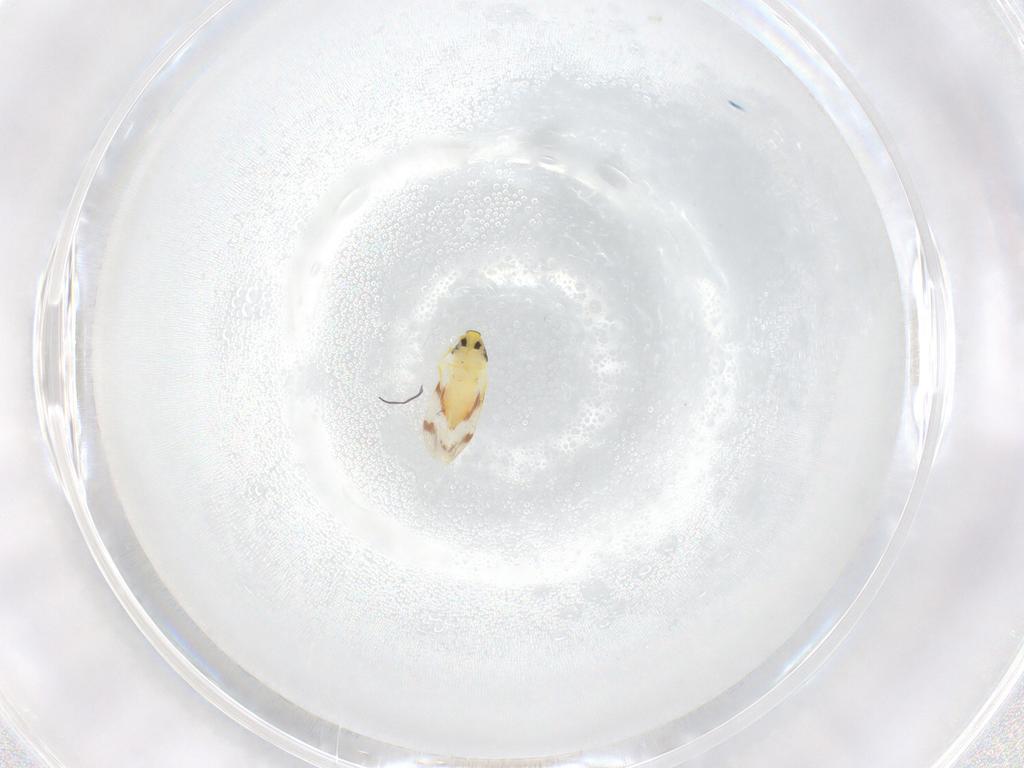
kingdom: Animalia
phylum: Arthropoda
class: Insecta
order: Hemiptera
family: Aleyrodidae
